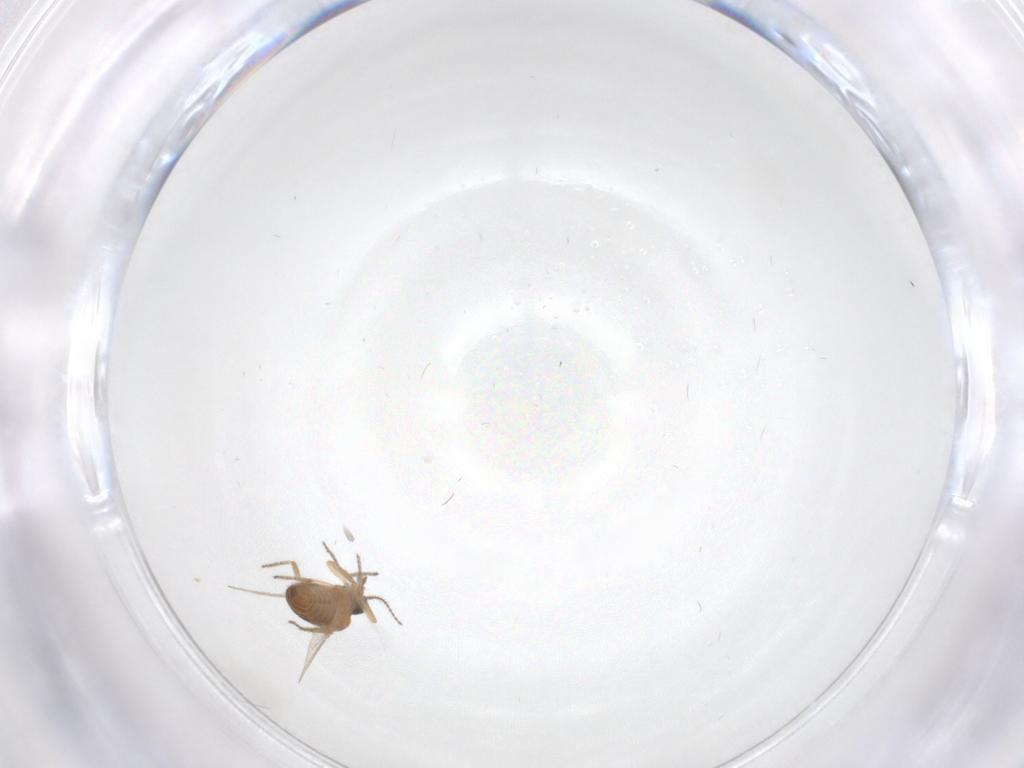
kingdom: Animalia
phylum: Arthropoda
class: Insecta
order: Diptera
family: Ceratopogonidae
